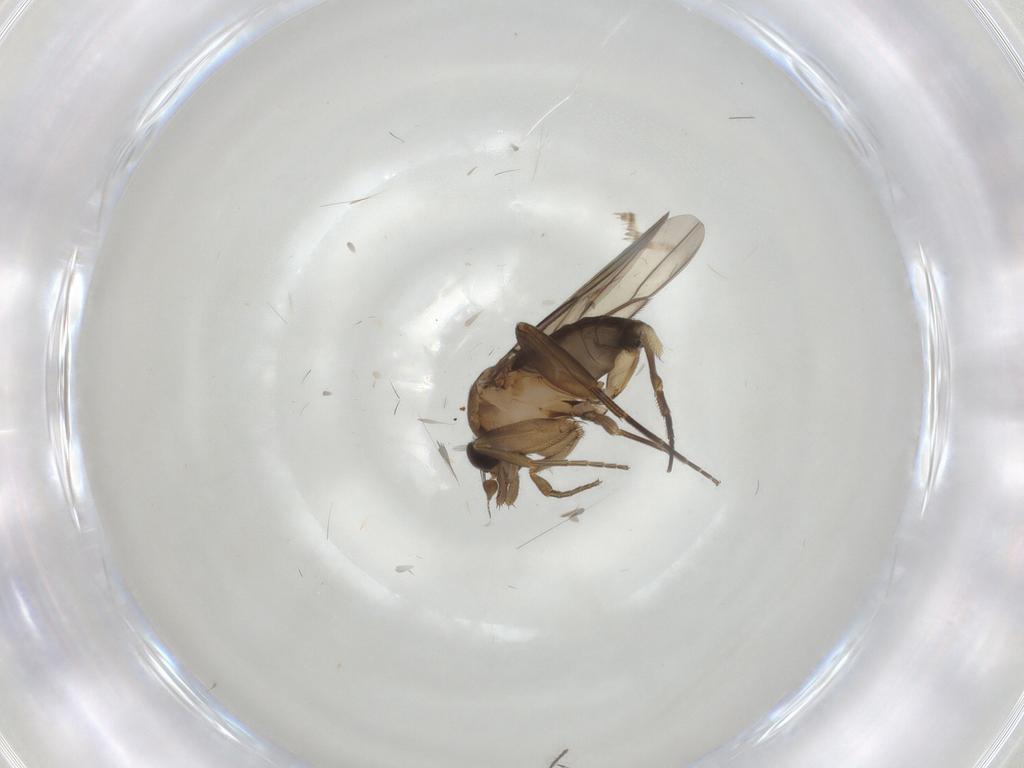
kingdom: Animalia
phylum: Arthropoda
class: Insecta
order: Diptera
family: Phoridae
